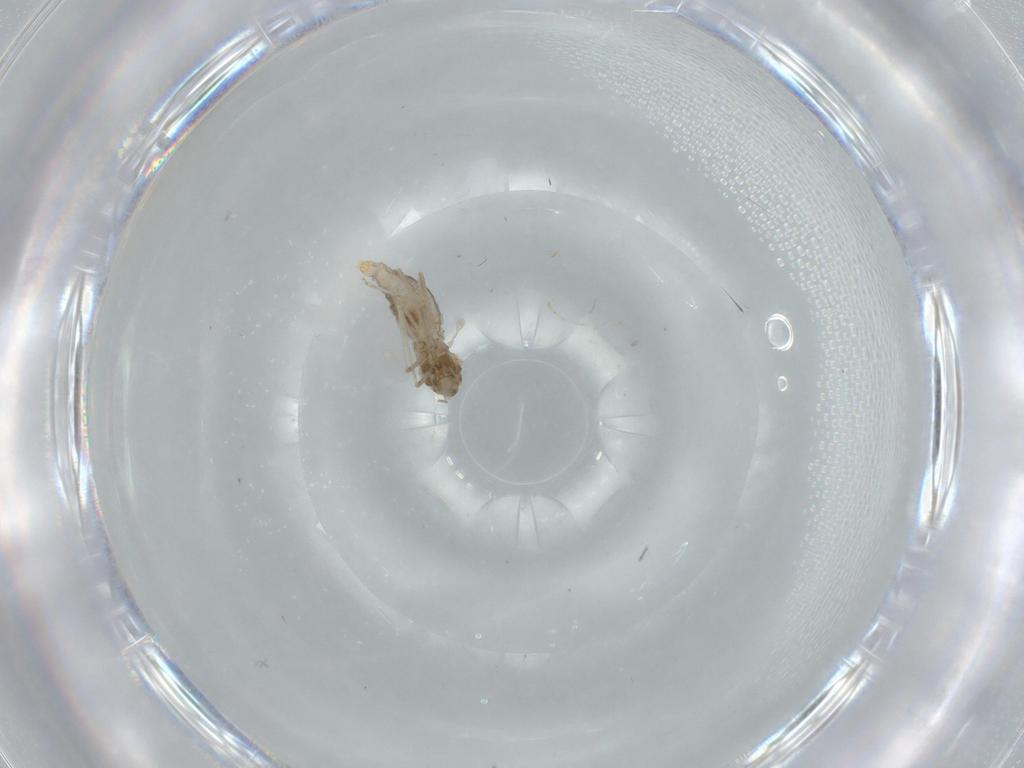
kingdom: Animalia
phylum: Arthropoda
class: Insecta
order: Diptera
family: Cecidomyiidae
